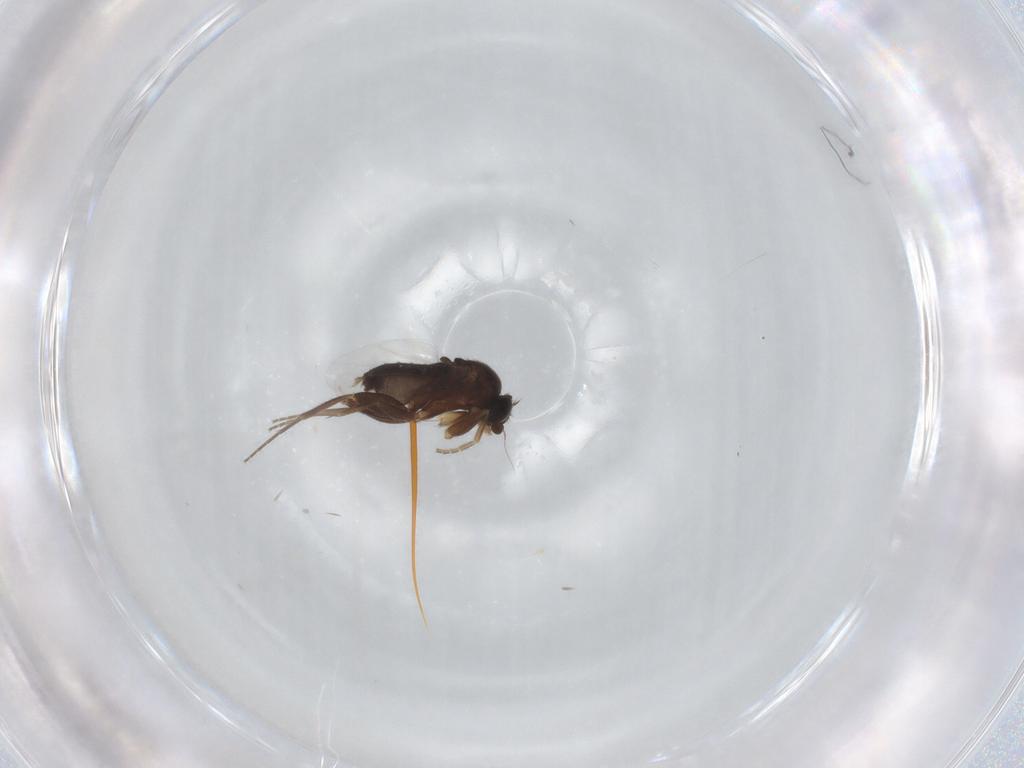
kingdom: Animalia
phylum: Arthropoda
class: Insecta
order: Diptera
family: Phoridae
